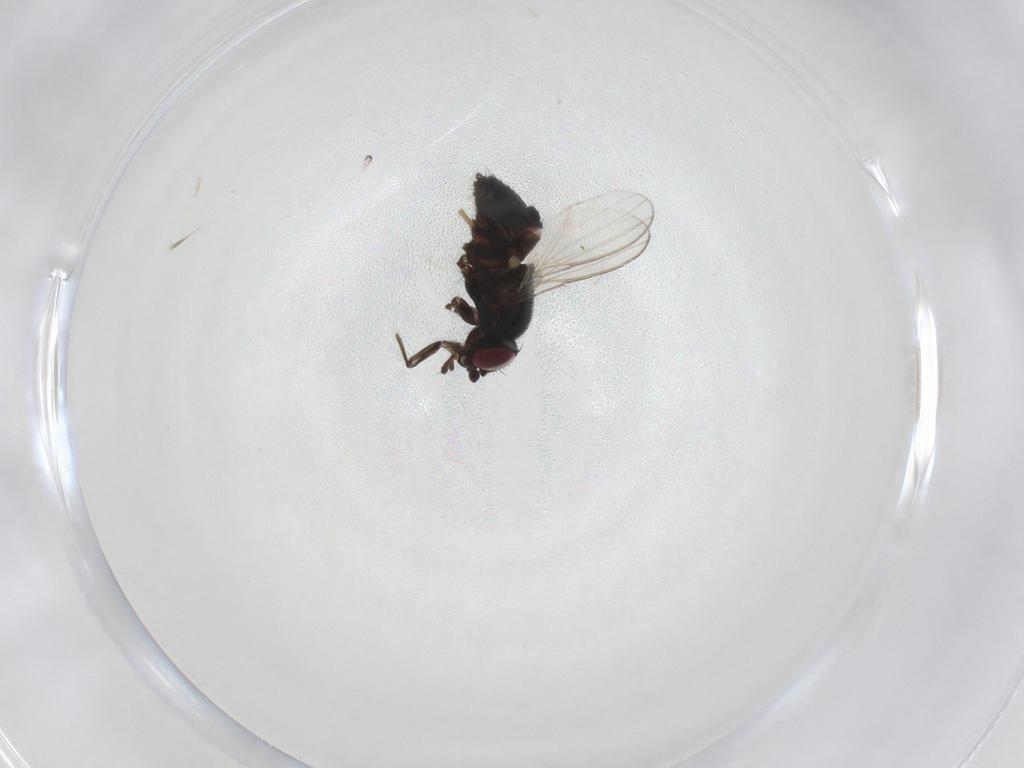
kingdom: Animalia
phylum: Arthropoda
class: Insecta
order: Diptera
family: Milichiidae
